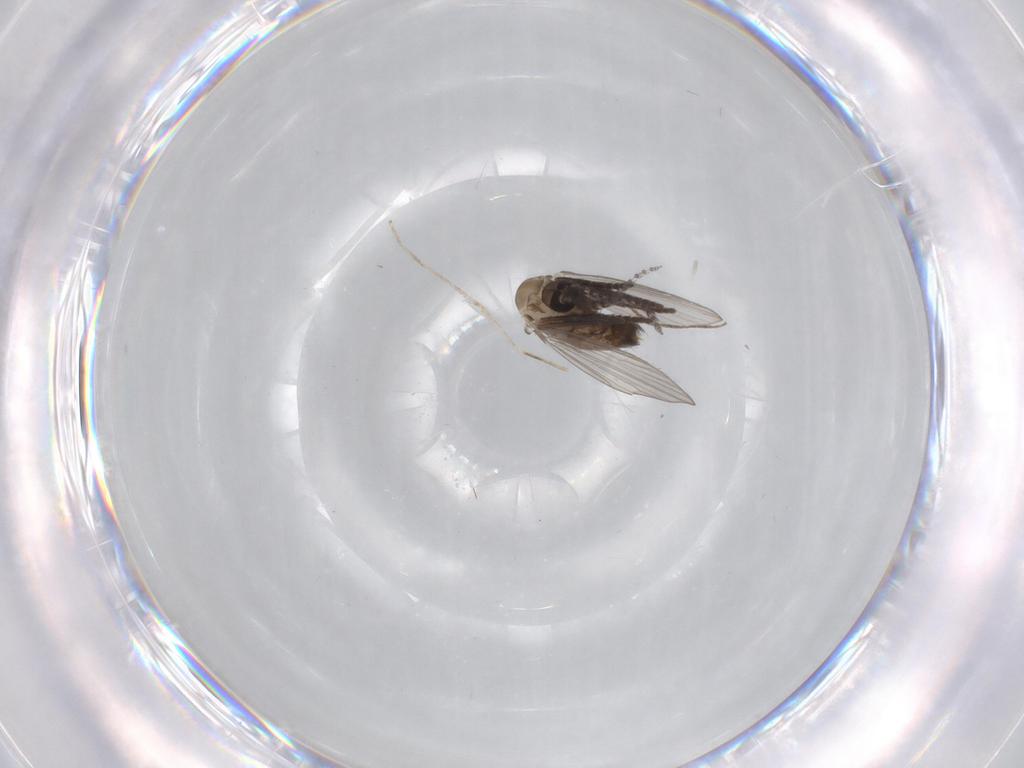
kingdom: Animalia
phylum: Arthropoda
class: Insecta
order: Diptera
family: Psychodidae
